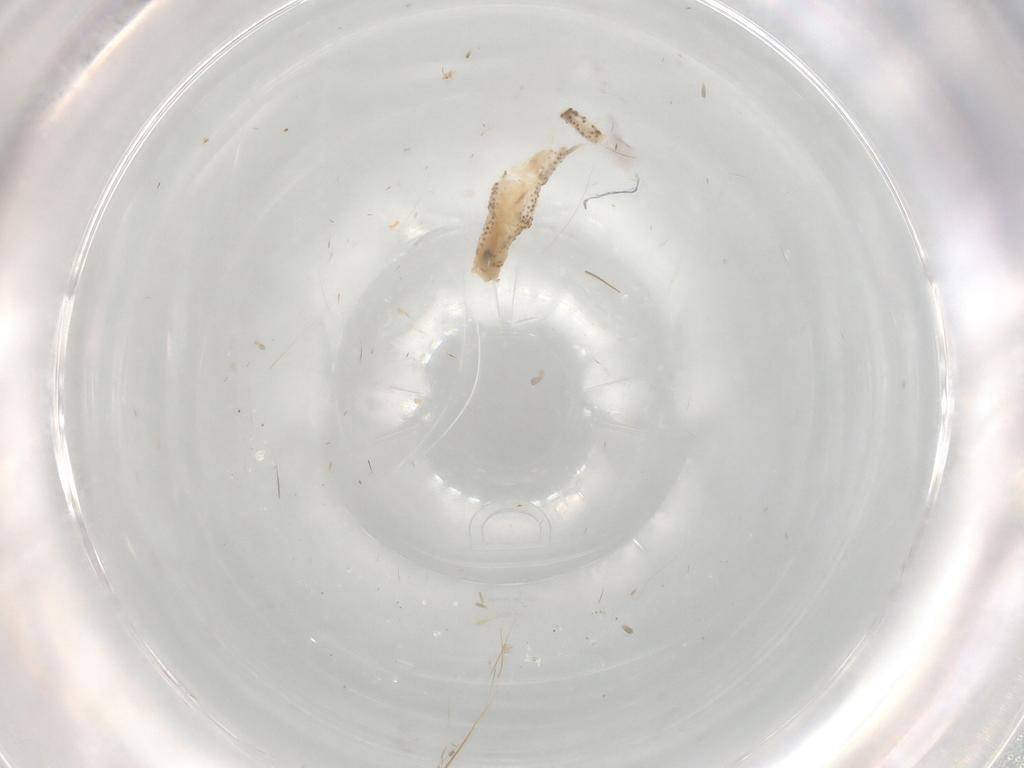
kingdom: Animalia
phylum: Arthropoda
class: Insecta
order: Diptera
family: Chaoboridae
